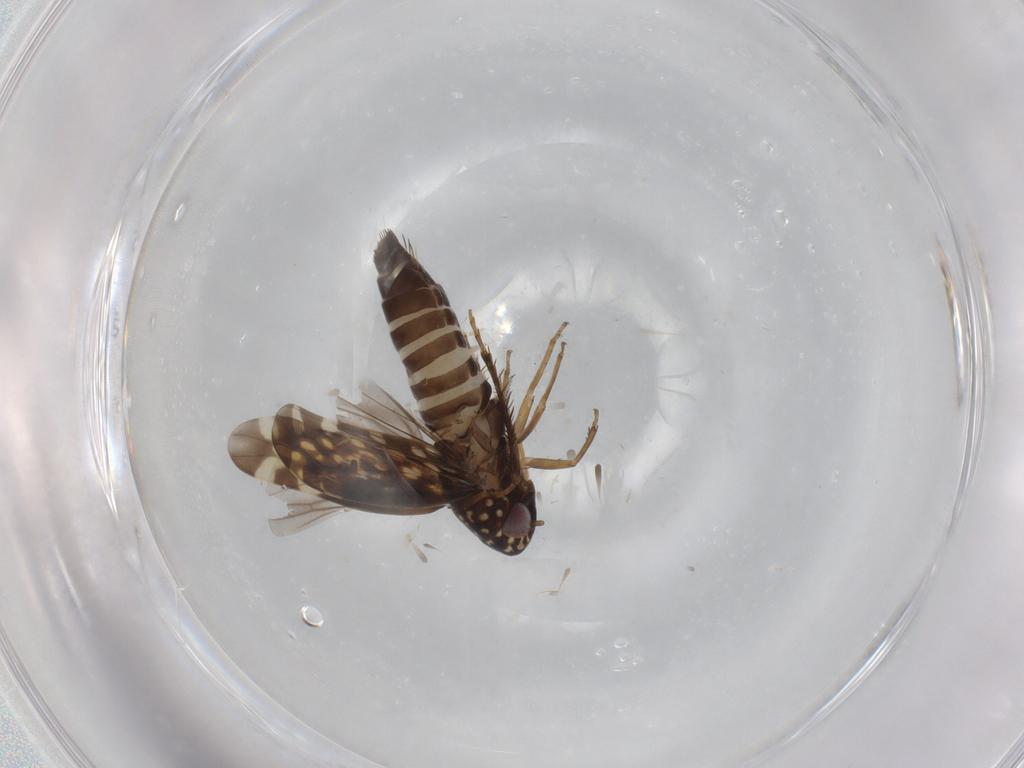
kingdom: Animalia
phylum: Arthropoda
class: Insecta
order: Hemiptera
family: Cicadellidae
